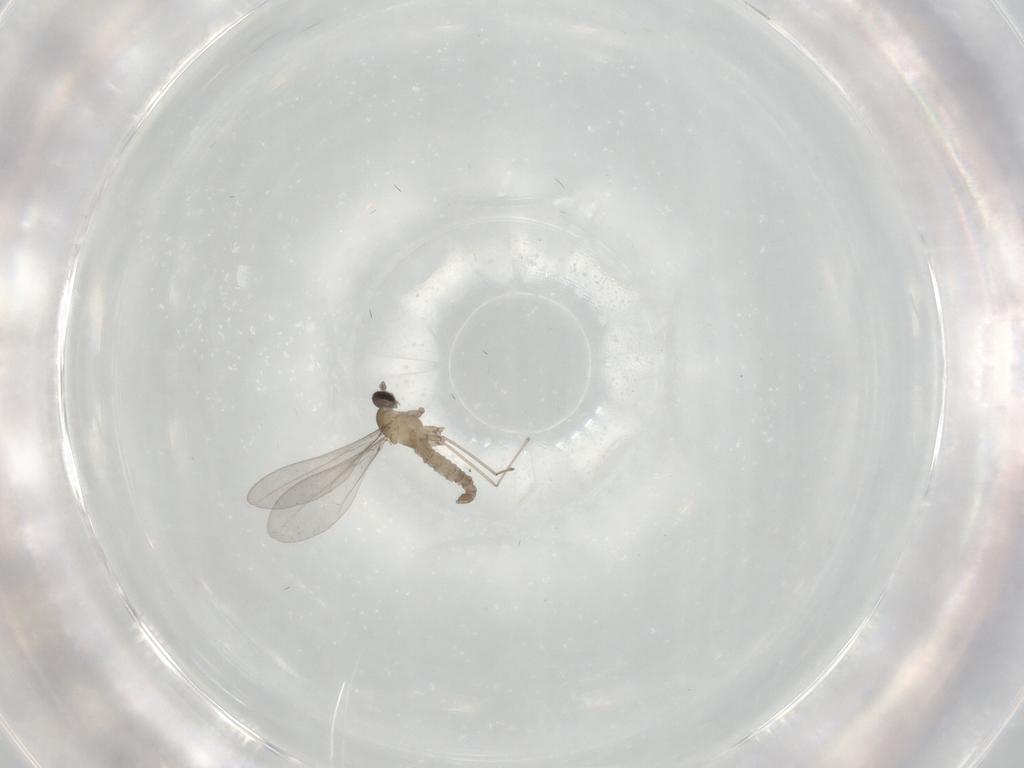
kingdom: Animalia
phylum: Arthropoda
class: Insecta
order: Diptera
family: Ceratopogonidae
